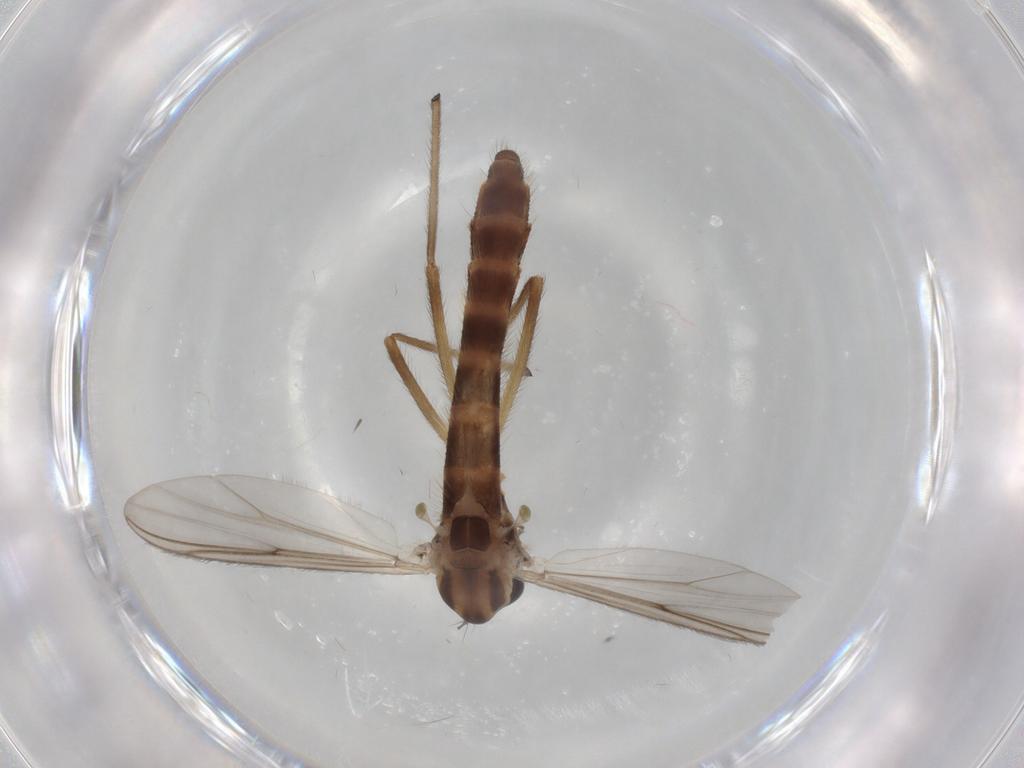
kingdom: Animalia
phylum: Arthropoda
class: Insecta
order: Diptera
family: Chironomidae
